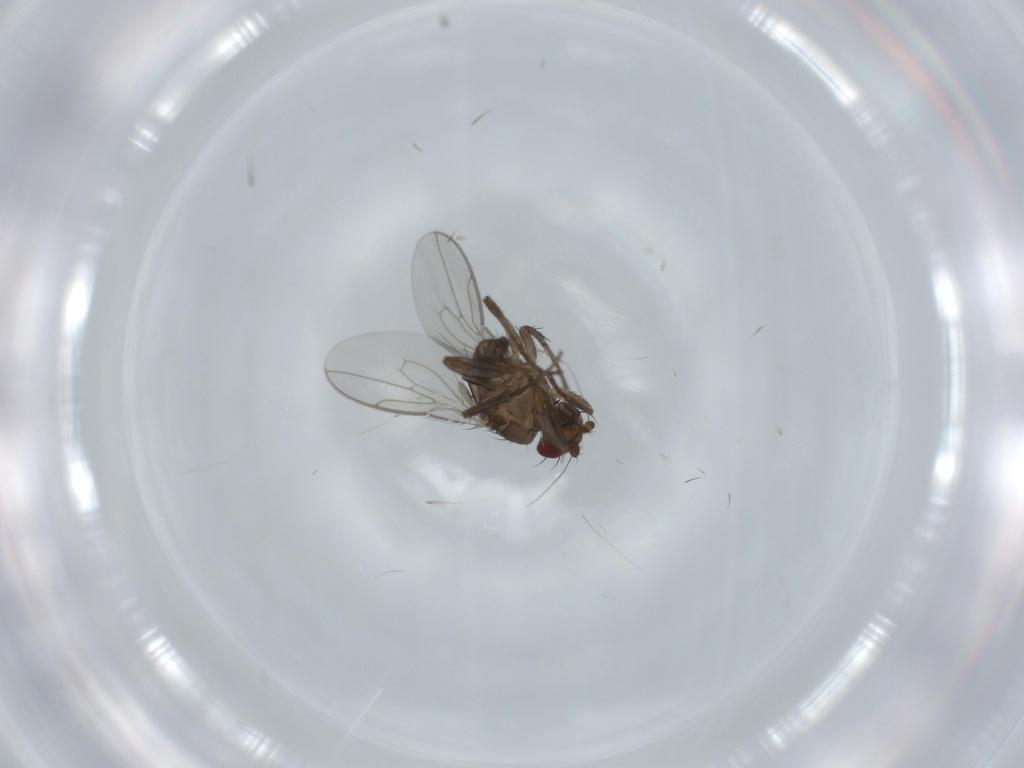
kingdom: Animalia
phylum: Arthropoda
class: Insecta
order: Diptera
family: Sphaeroceridae
